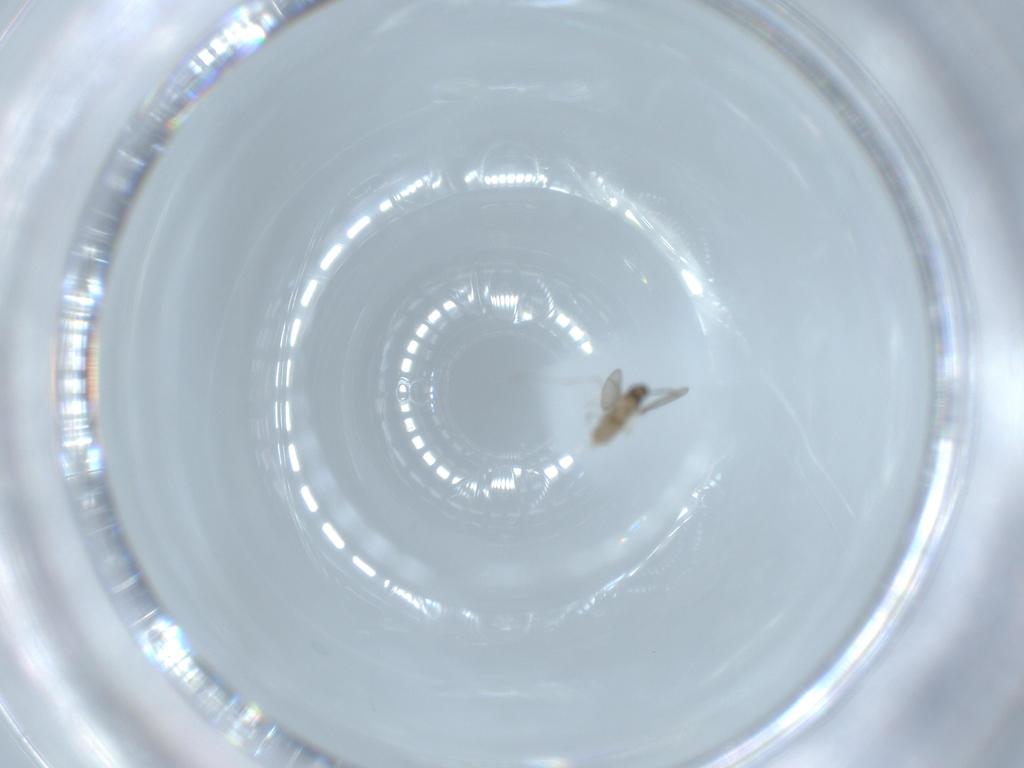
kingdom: Animalia
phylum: Arthropoda
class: Insecta
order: Diptera
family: Cecidomyiidae
